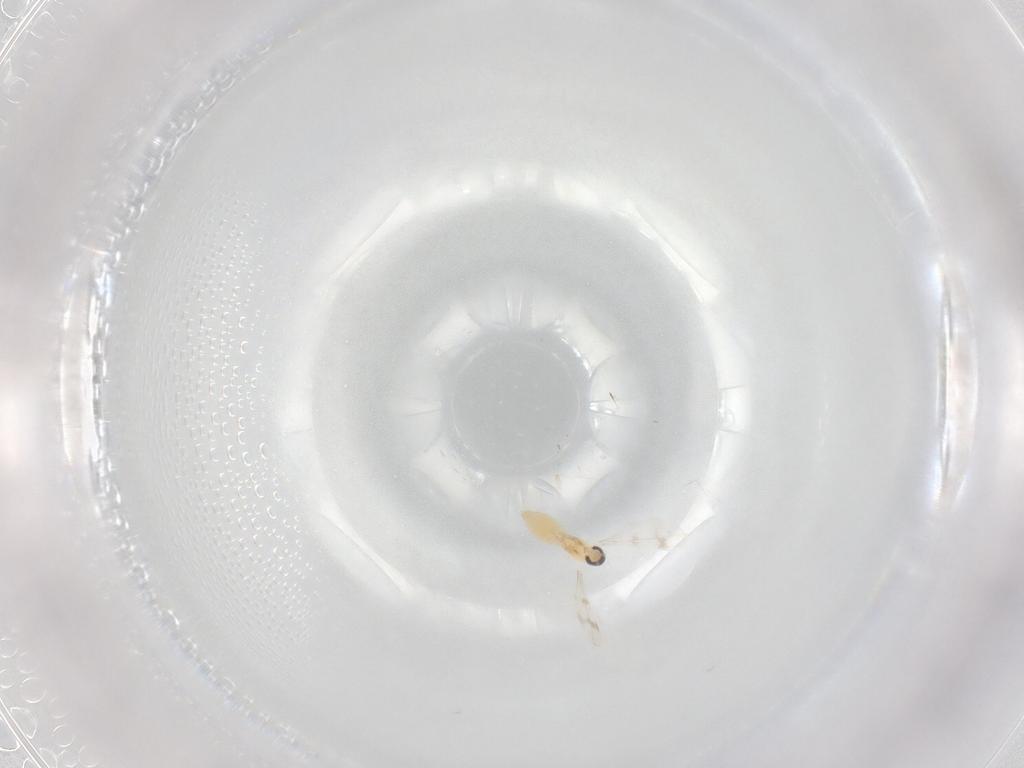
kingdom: Animalia
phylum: Arthropoda
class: Insecta
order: Diptera
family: Cecidomyiidae
